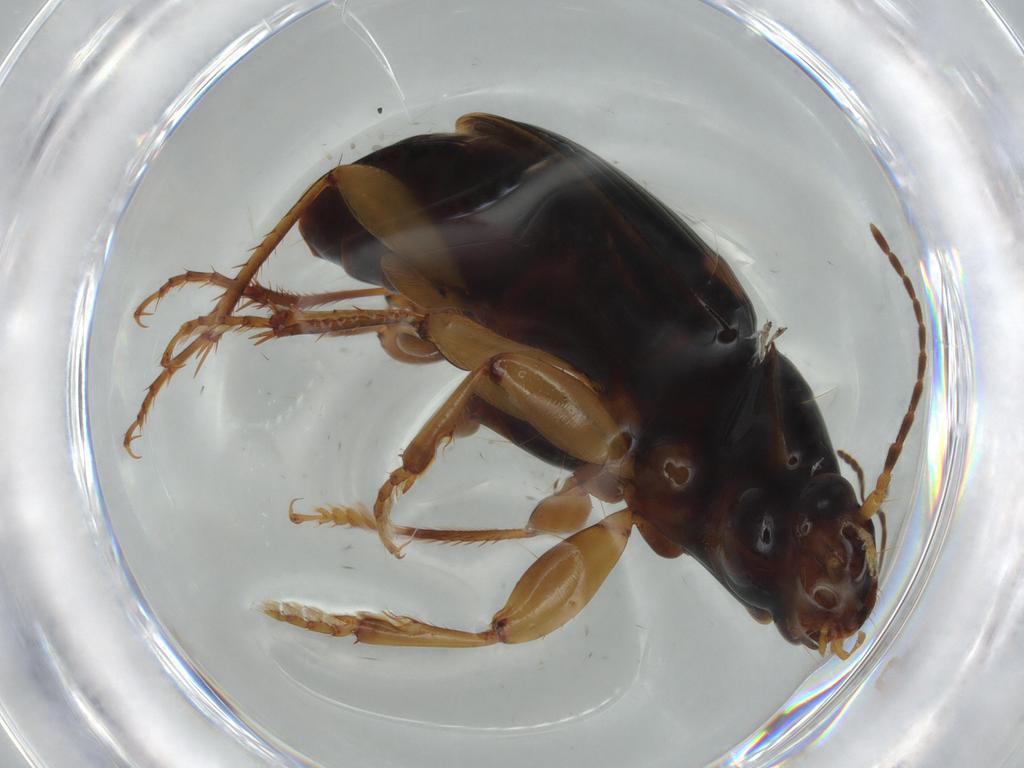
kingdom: Animalia
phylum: Arthropoda
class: Insecta
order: Coleoptera
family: Carabidae
